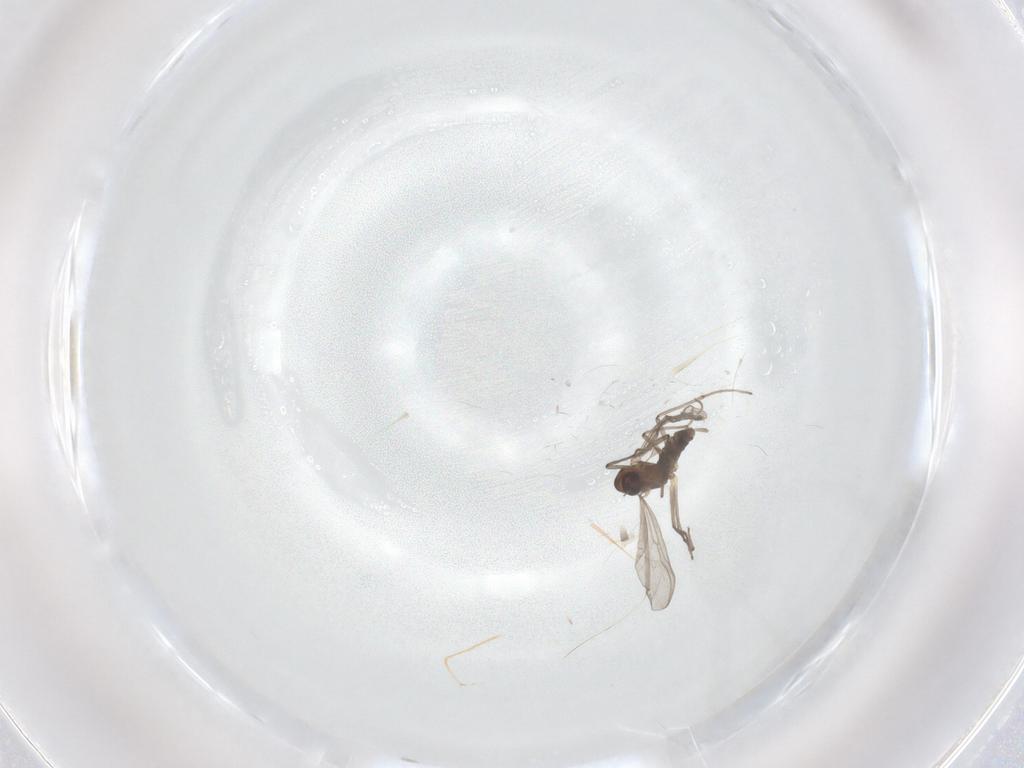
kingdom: Animalia
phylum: Arthropoda
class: Insecta
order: Diptera
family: Chironomidae
